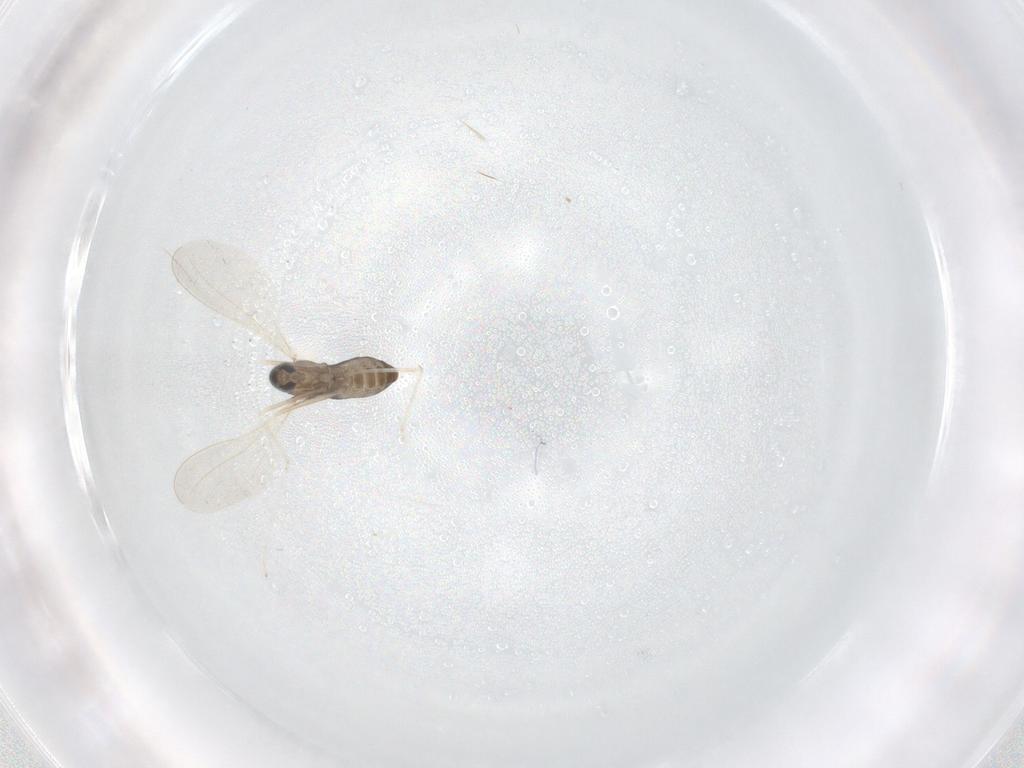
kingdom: Animalia
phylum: Arthropoda
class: Insecta
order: Diptera
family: Cecidomyiidae
